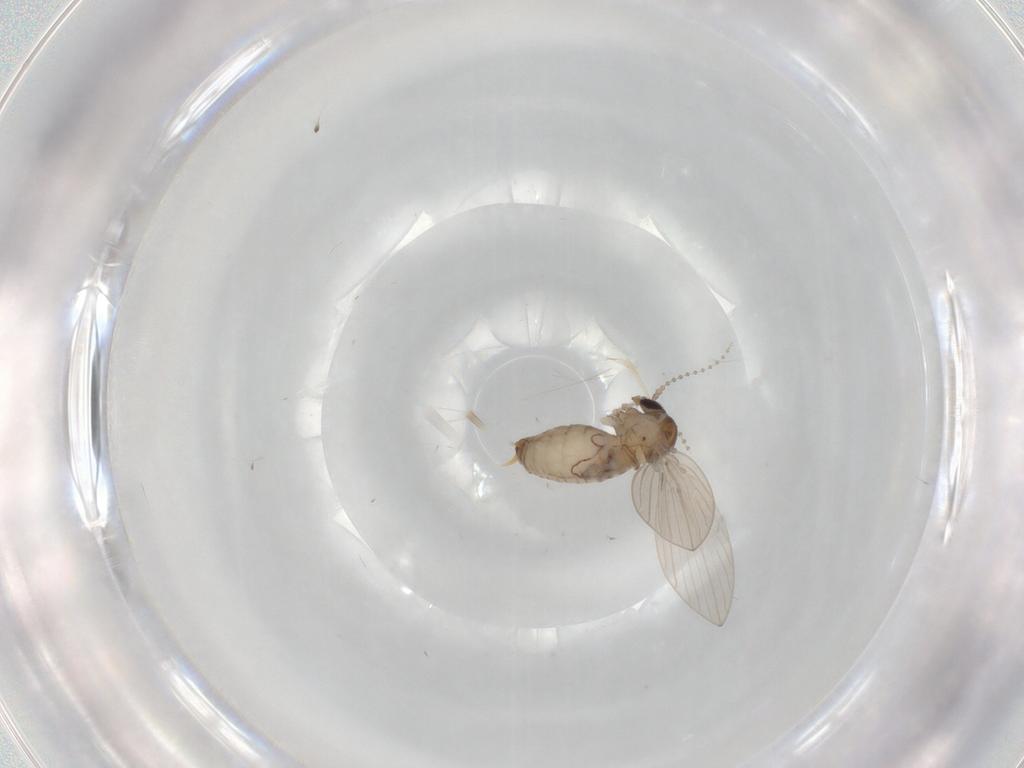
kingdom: Animalia
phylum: Arthropoda
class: Insecta
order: Diptera
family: Psychodidae
